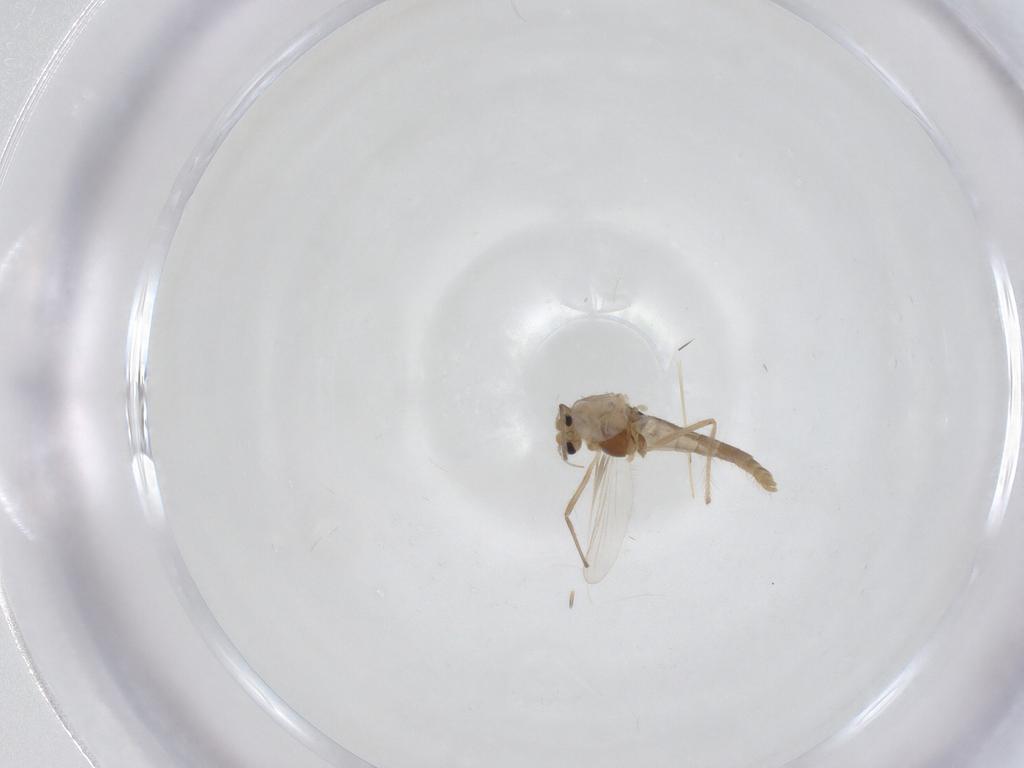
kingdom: Animalia
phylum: Arthropoda
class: Insecta
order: Diptera
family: Chironomidae
